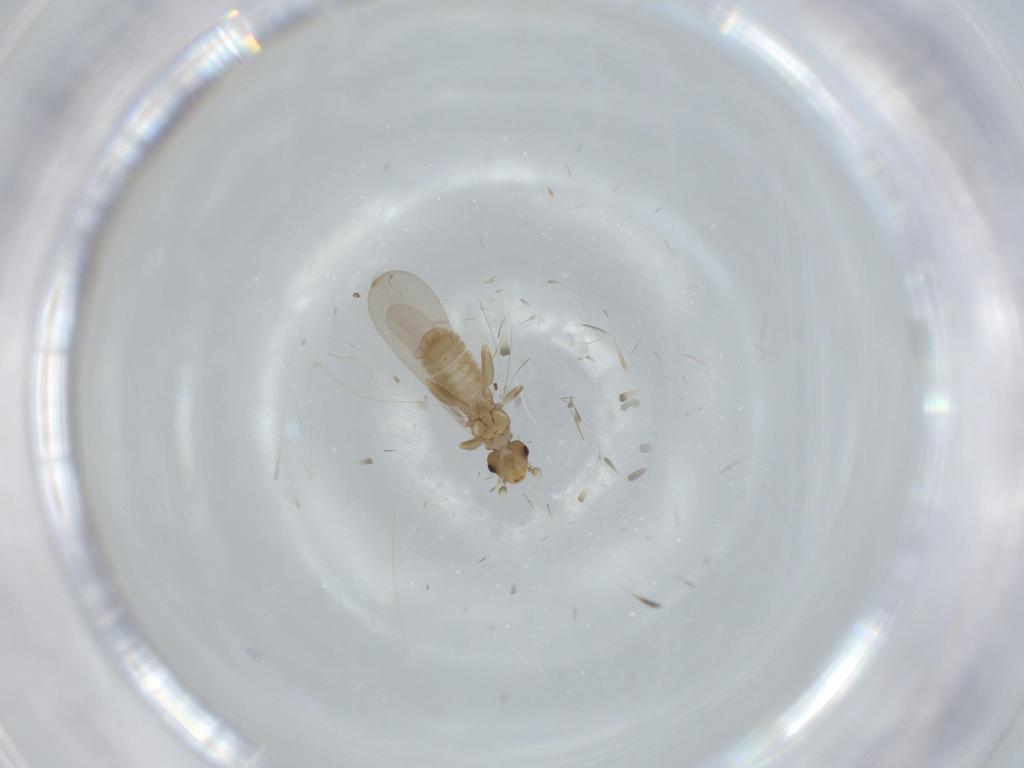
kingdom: Animalia
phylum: Arthropoda
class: Insecta
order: Psocodea
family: Liposcelididae
